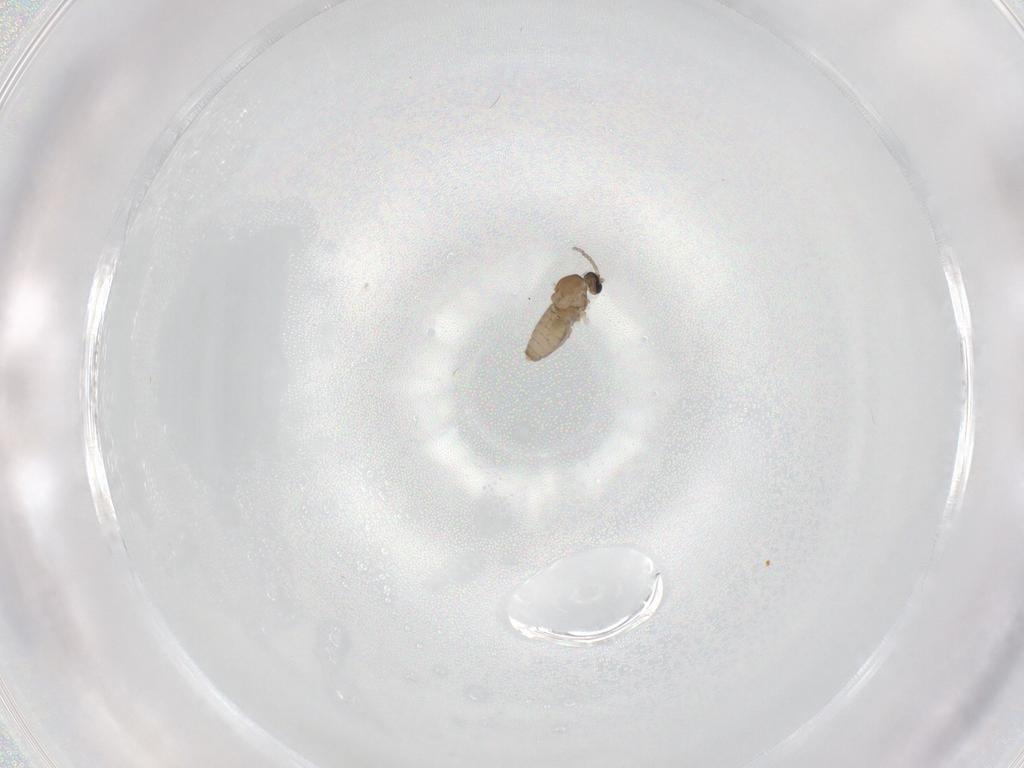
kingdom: Animalia
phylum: Arthropoda
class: Insecta
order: Diptera
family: Cecidomyiidae
